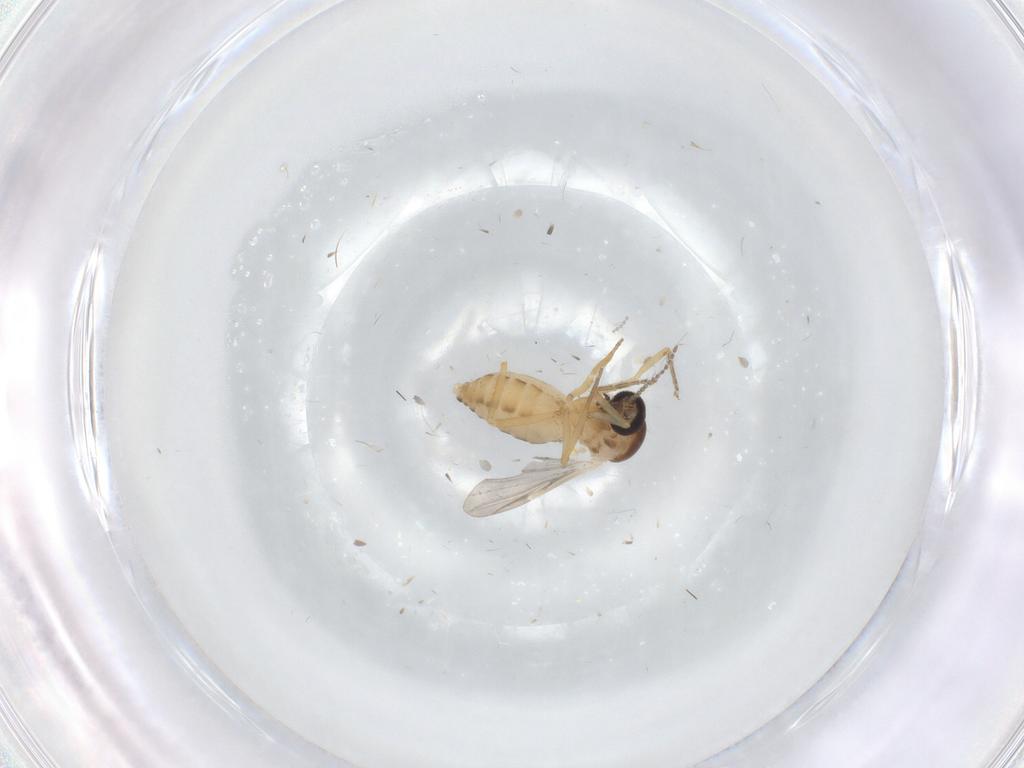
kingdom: Animalia
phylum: Arthropoda
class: Insecta
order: Diptera
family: Ceratopogonidae
